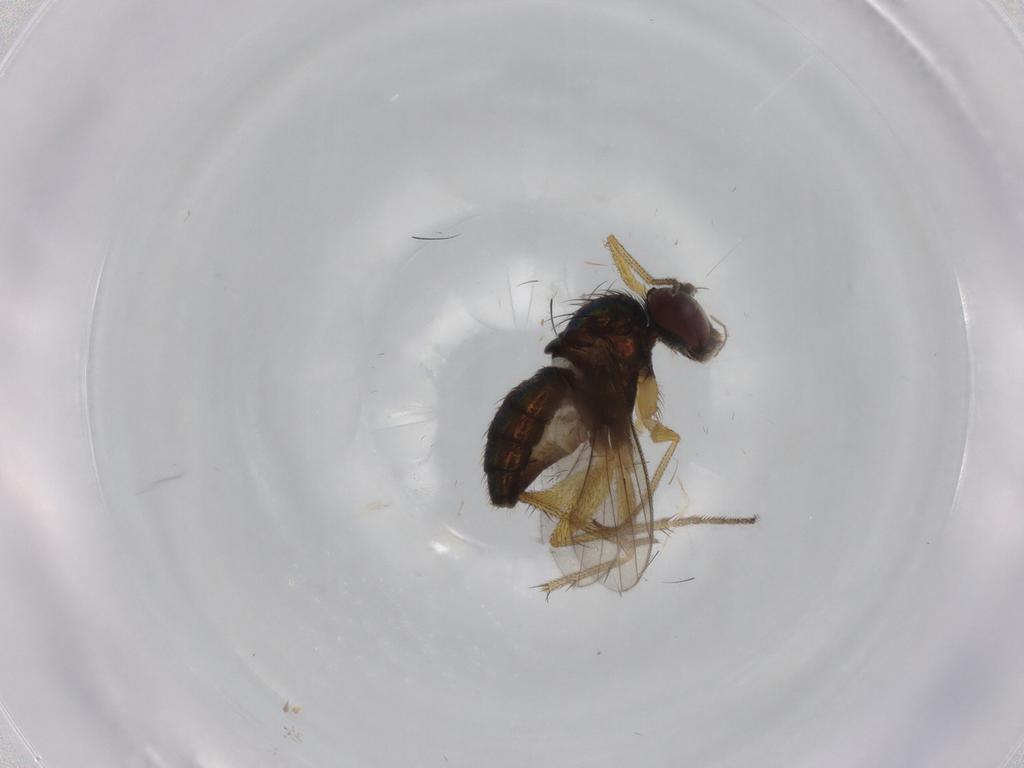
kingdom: Animalia
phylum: Arthropoda
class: Insecta
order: Diptera
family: Dolichopodidae
